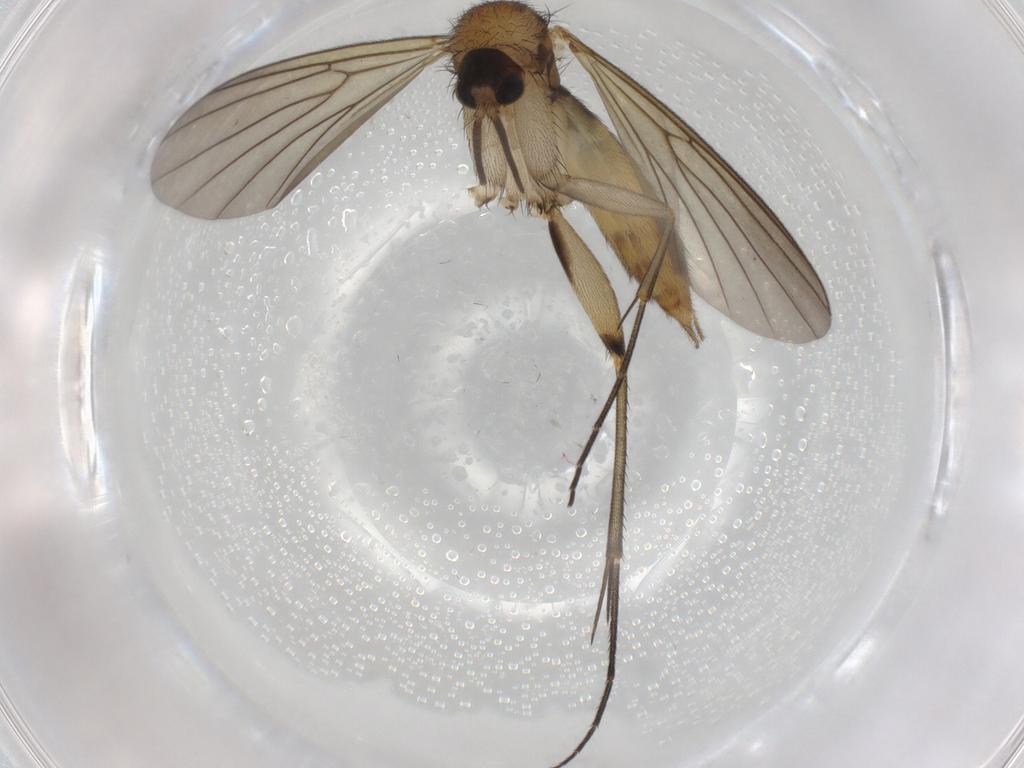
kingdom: Animalia
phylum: Arthropoda
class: Insecta
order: Diptera
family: Mycetophilidae
